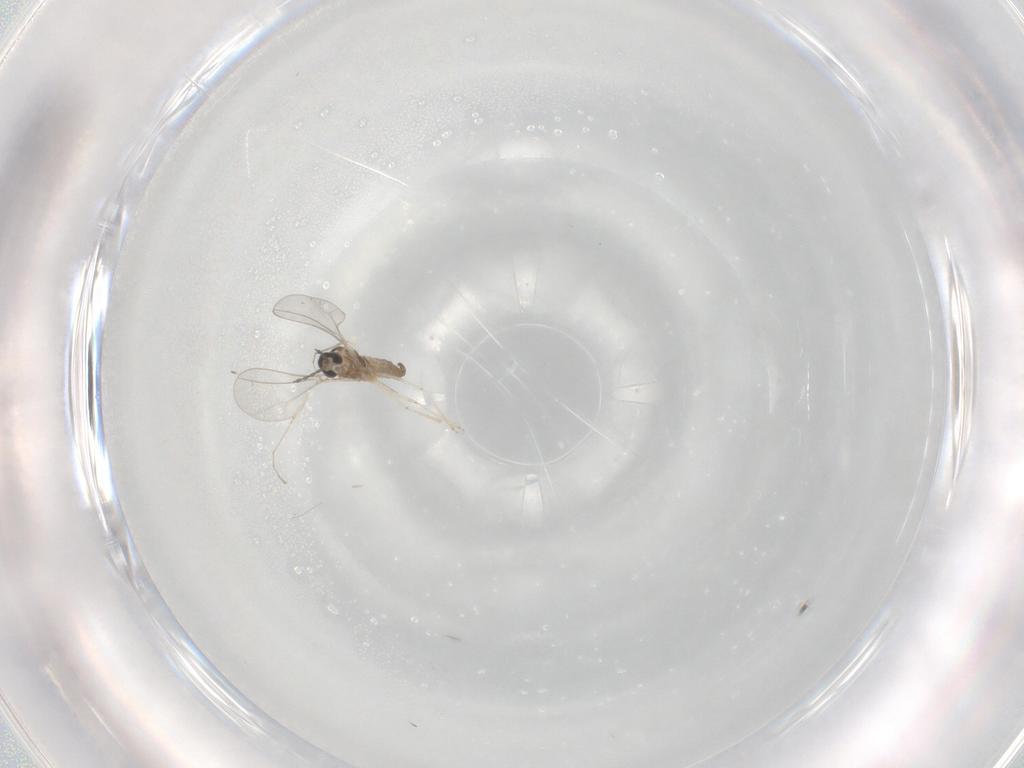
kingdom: Animalia
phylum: Arthropoda
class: Insecta
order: Diptera
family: Cecidomyiidae
